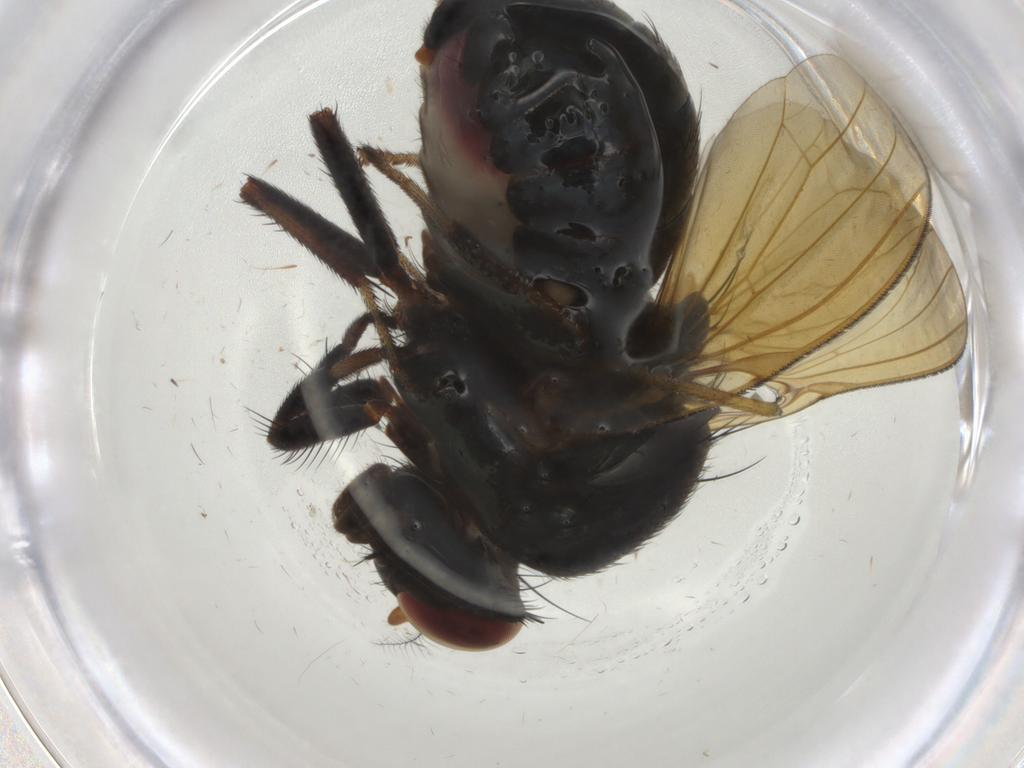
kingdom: Animalia
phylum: Arthropoda
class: Insecta
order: Diptera
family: Lauxaniidae
